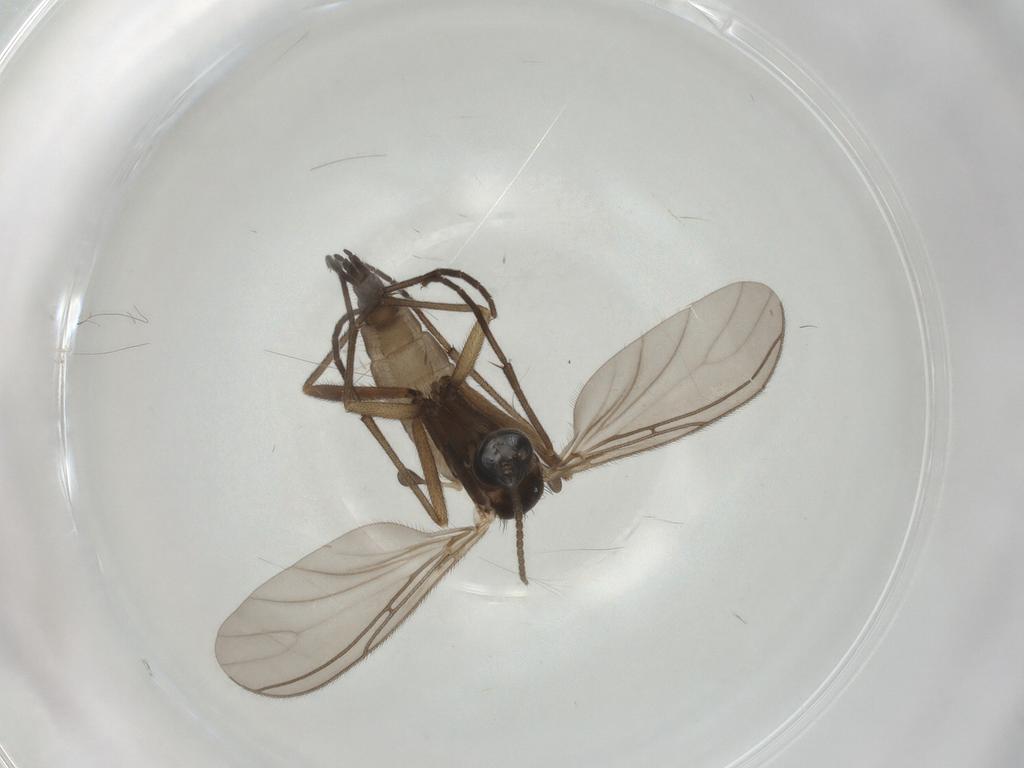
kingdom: Animalia
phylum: Arthropoda
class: Insecta
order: Diptera
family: Sciaridae
